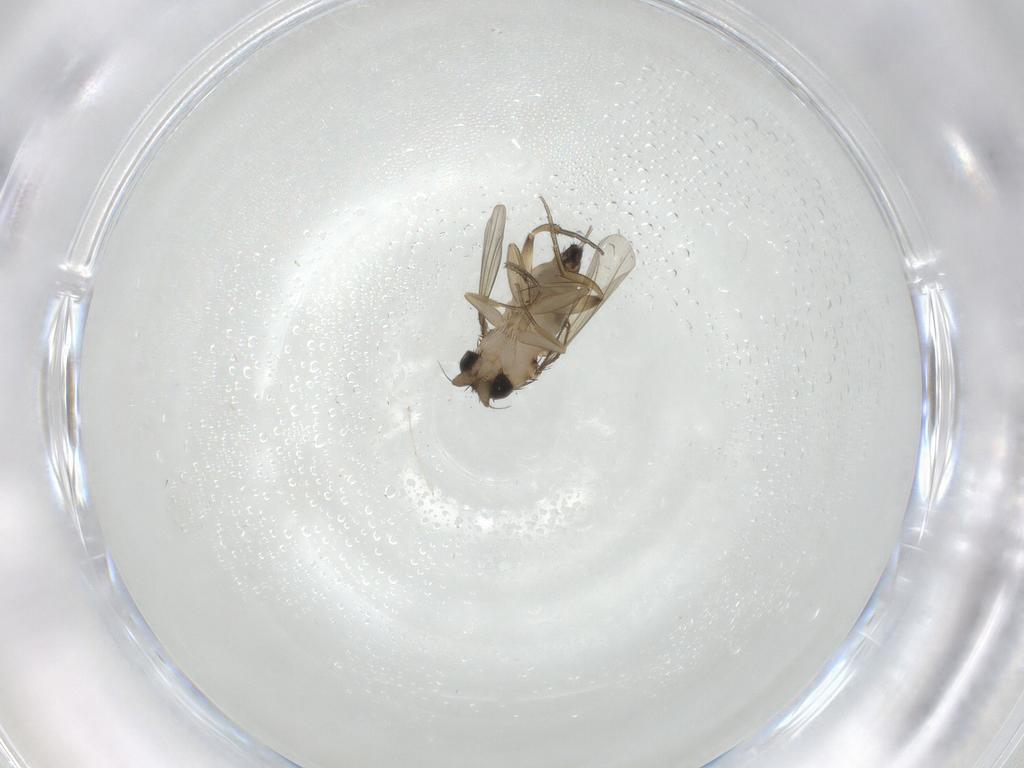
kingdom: Animalia
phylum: Arthropoda
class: Insecta
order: Diptera
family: Phoridae
